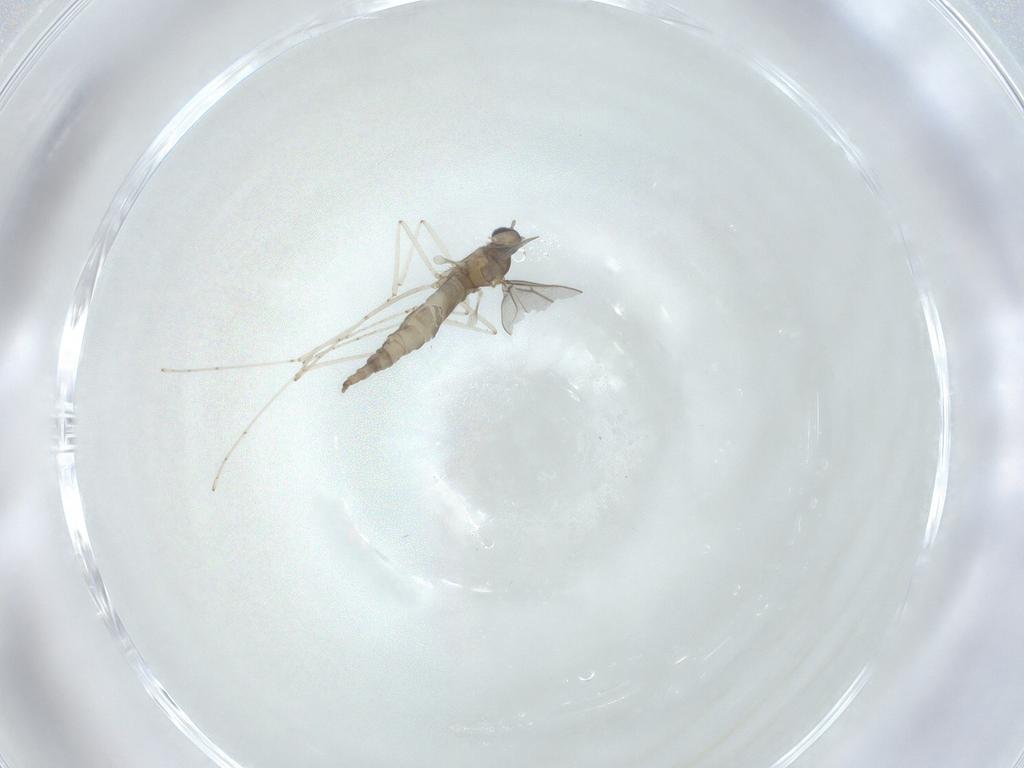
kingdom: Animalia
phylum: Arthropoda
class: Insecta
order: Diptera
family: Cecidomyiidae
